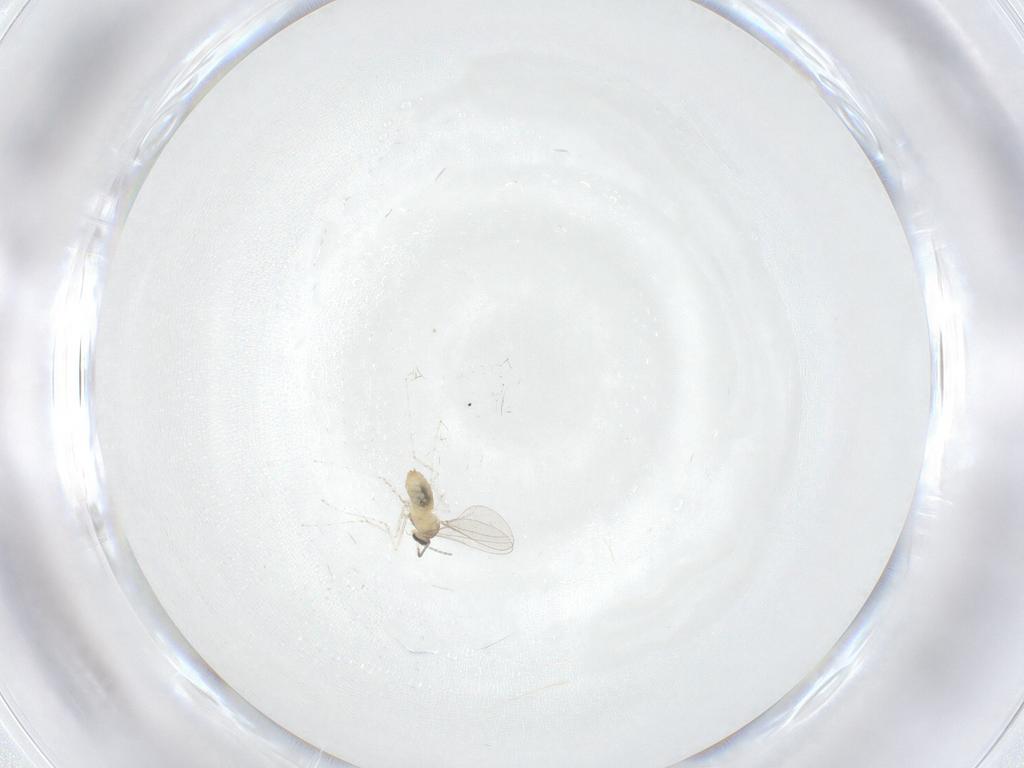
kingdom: Animalia
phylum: Arthropoda
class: Insecta
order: Diptera
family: Cecidomyiidae
